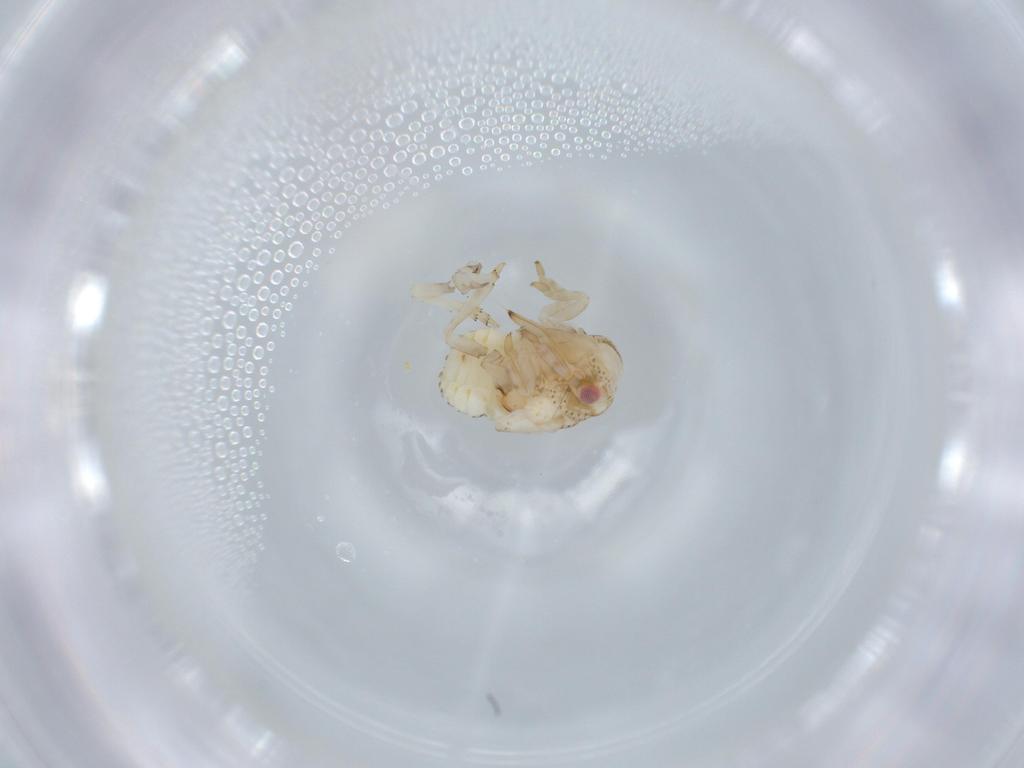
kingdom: Animalia
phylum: Arthropoda
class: Insecta
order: Hemiptera
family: Acanaloniidae
